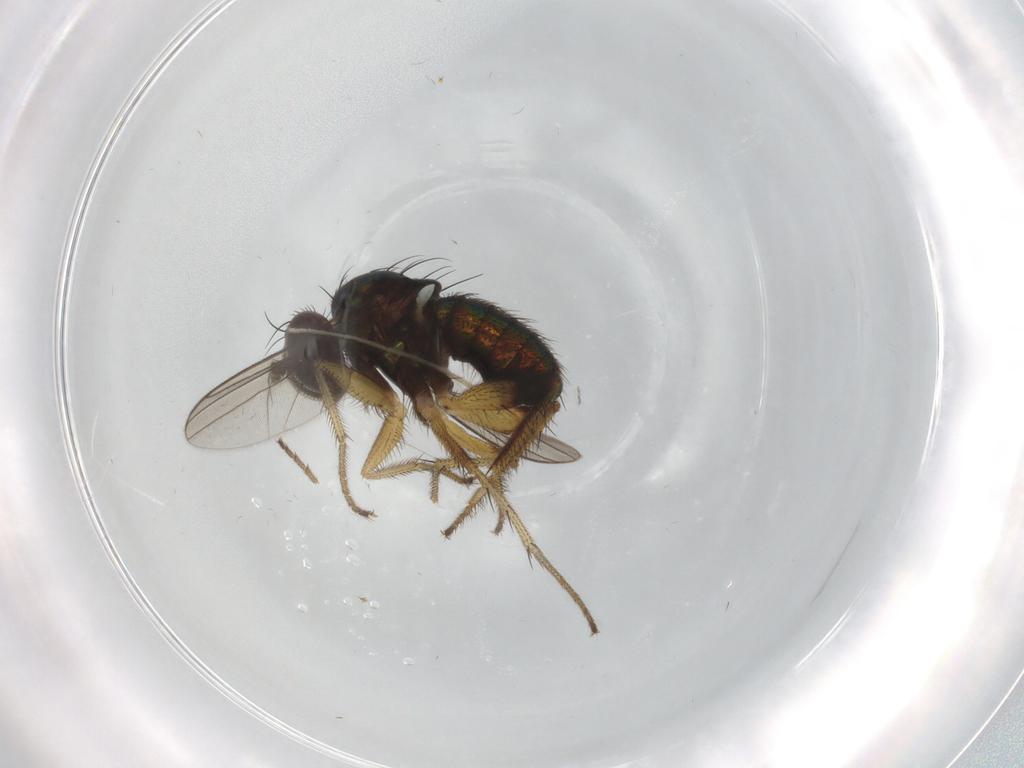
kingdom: Animalia
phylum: Arthropoda
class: Insecta
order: Diptera
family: Dolichopodidae
